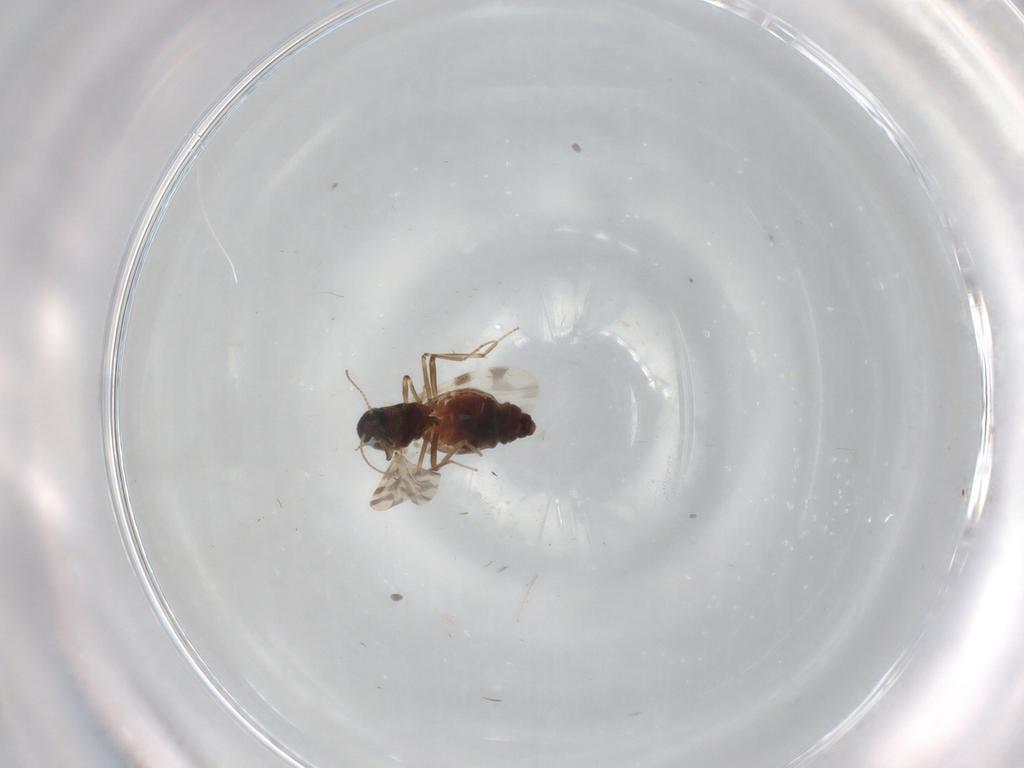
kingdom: Animalia
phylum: Arthropoda
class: Insecta
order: Diptera
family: Ceratopogonidae
